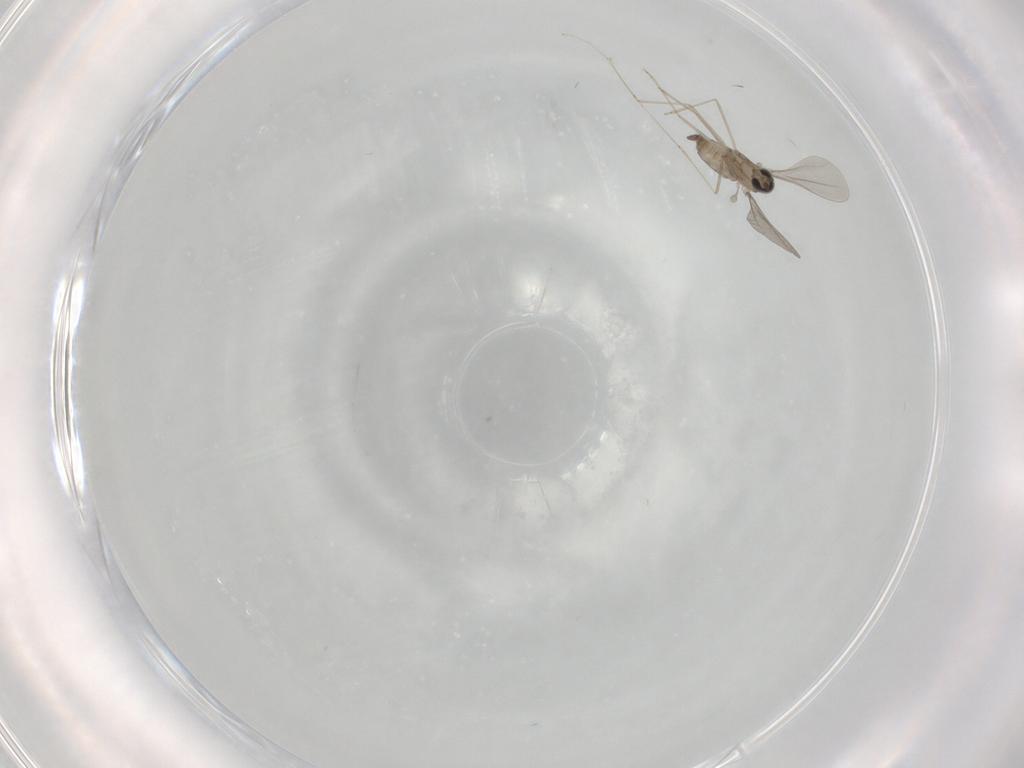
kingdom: Animalia
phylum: Arthropoda
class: Insecta
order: Diptera
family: Cecidomyiidae
